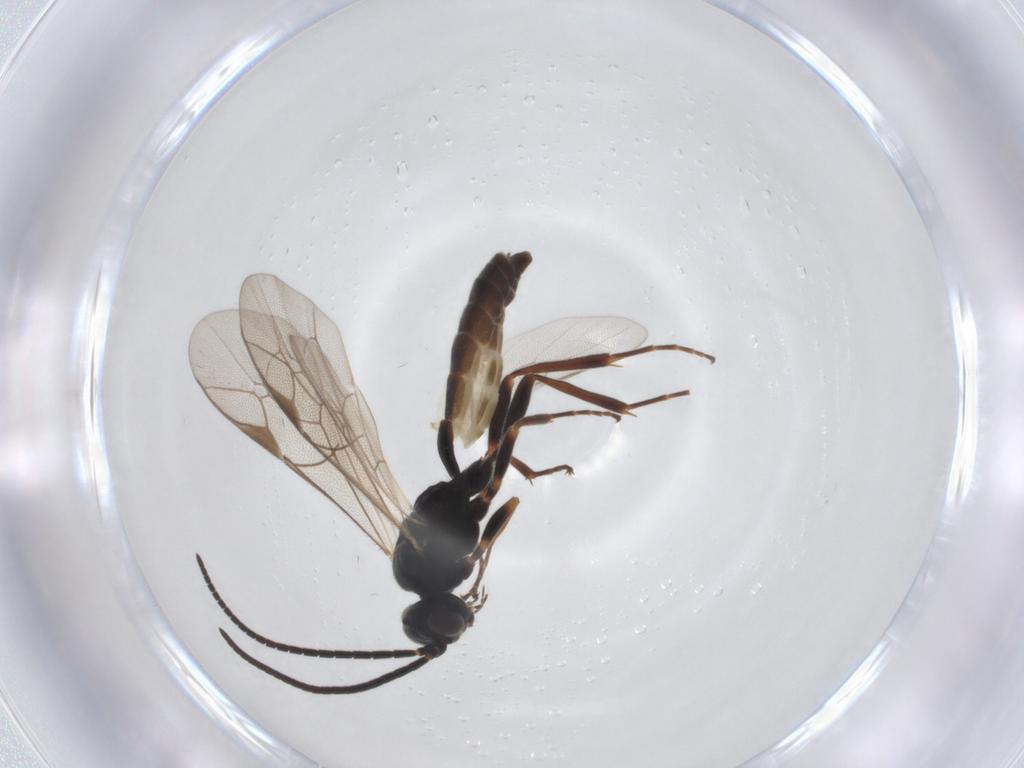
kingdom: Animalia
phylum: Arthropoda
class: Insecta
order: Hymenoptera
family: Ichneumonidae
